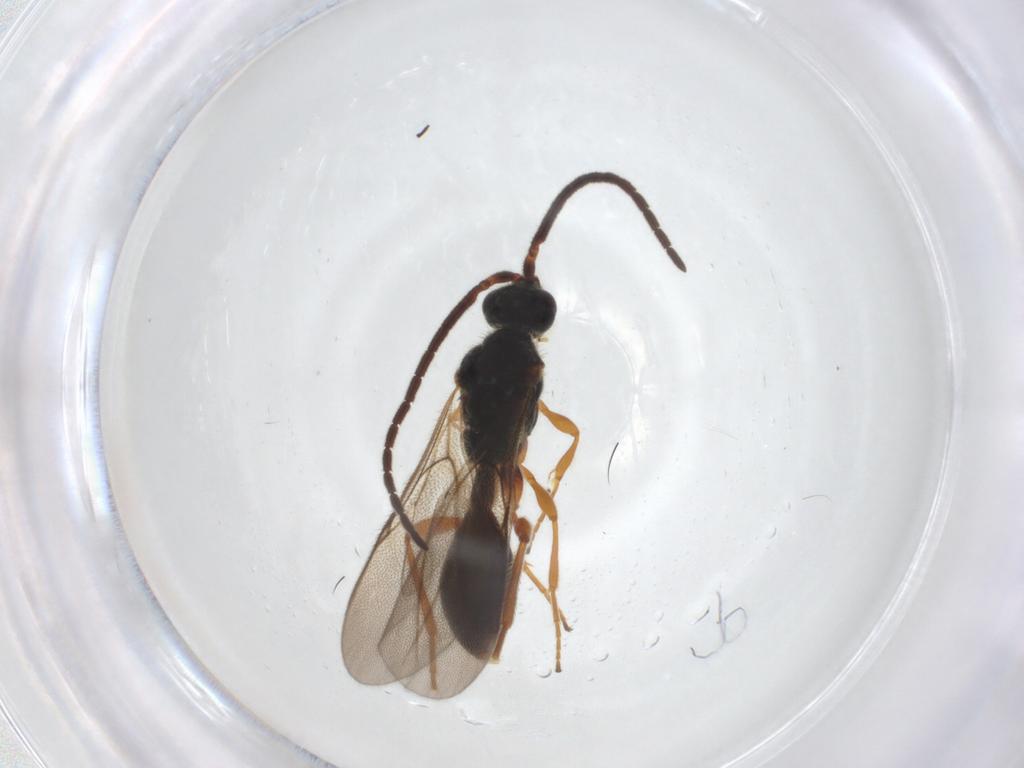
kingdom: Animalia
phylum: Arthropoda
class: Insecta
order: Hymenoptera
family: Diapriidae
